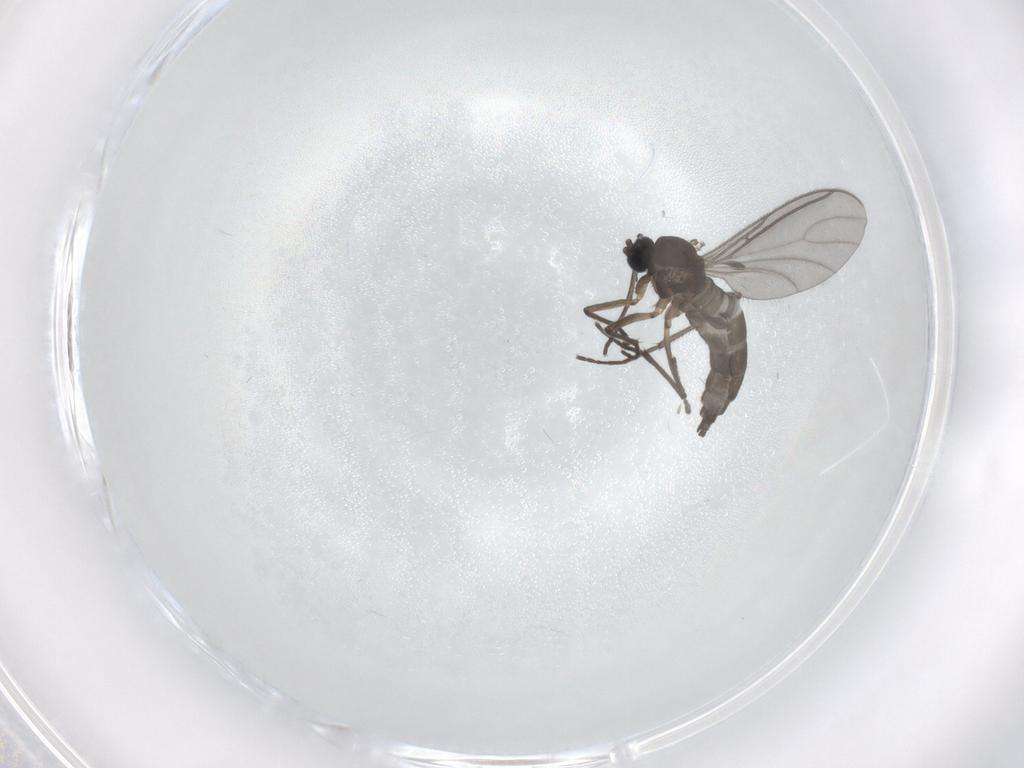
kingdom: Animalia
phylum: Arthropoda
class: Insecta
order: Diptera
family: Sciaridae
